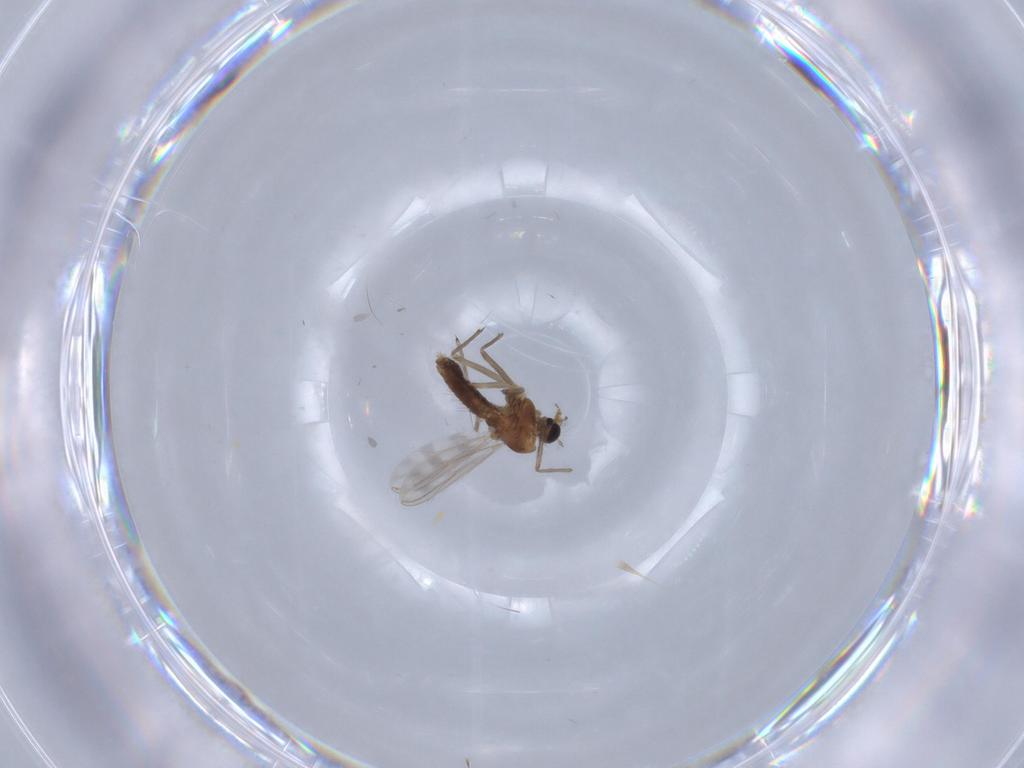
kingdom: Animalia
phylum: Arthropoda
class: Insecta
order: Diptera
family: Chironomidae
